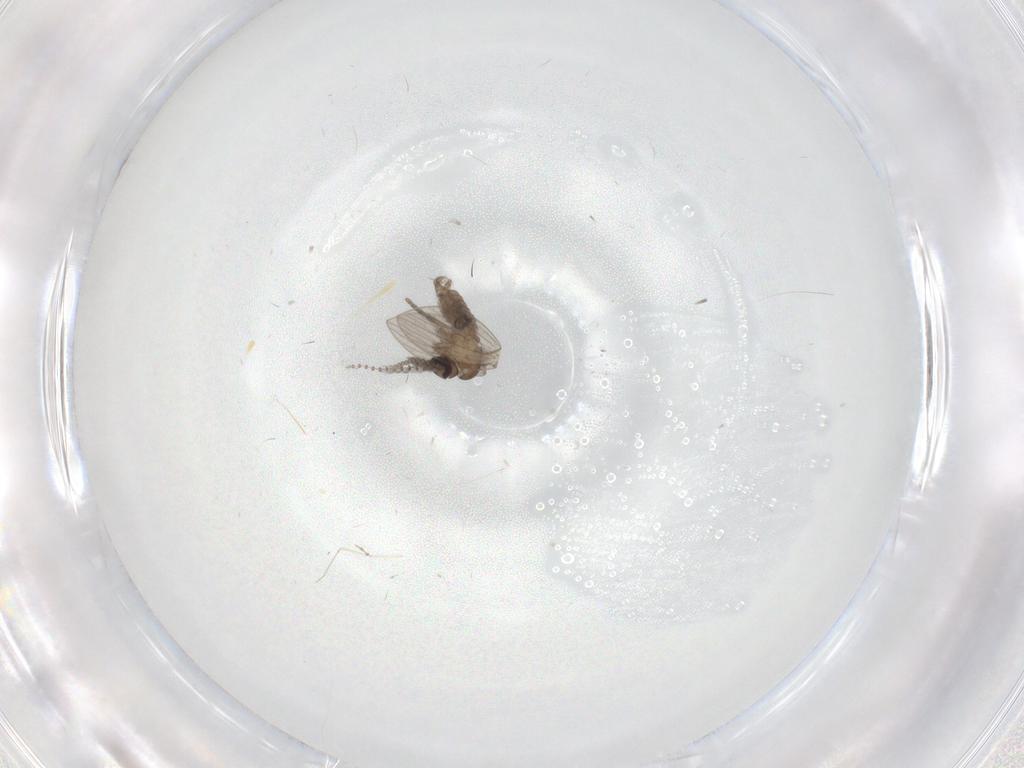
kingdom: Animalia
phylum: Arthropoda
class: Insecta
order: Diptera
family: Psychodidae
